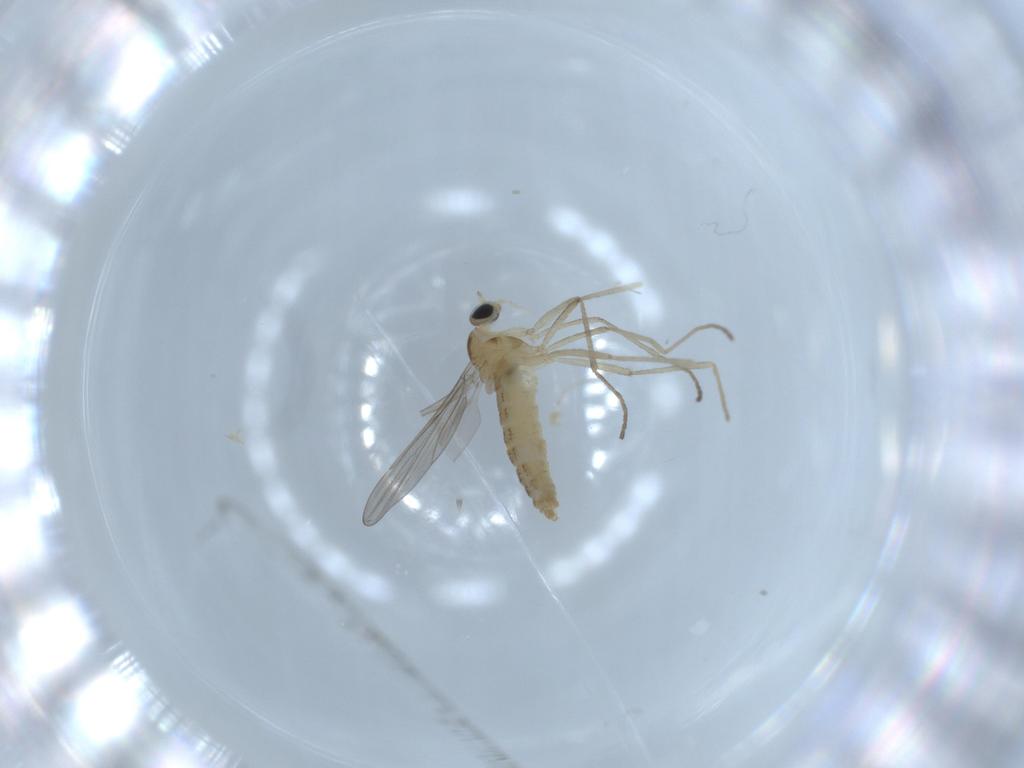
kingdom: Animalia
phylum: Arthropoda
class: Insecta
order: Diptera
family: Cecidomyiidae
